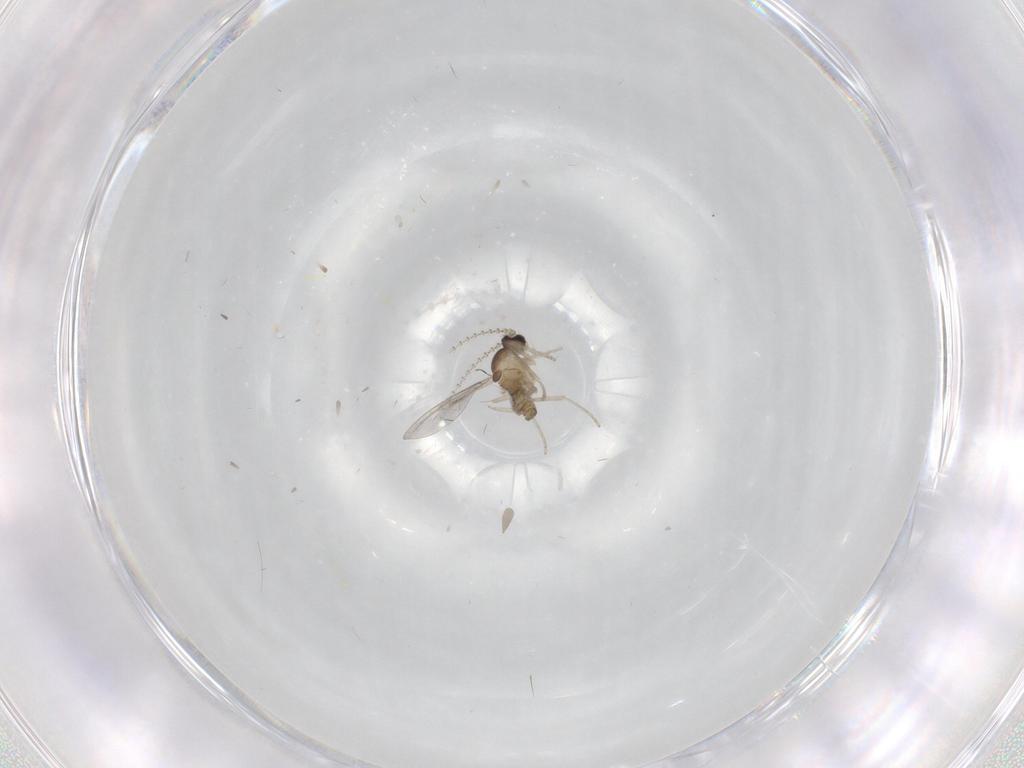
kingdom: Animalia
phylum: Arthropoda
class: Insecta
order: Diptera
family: Cecidomyiidae
